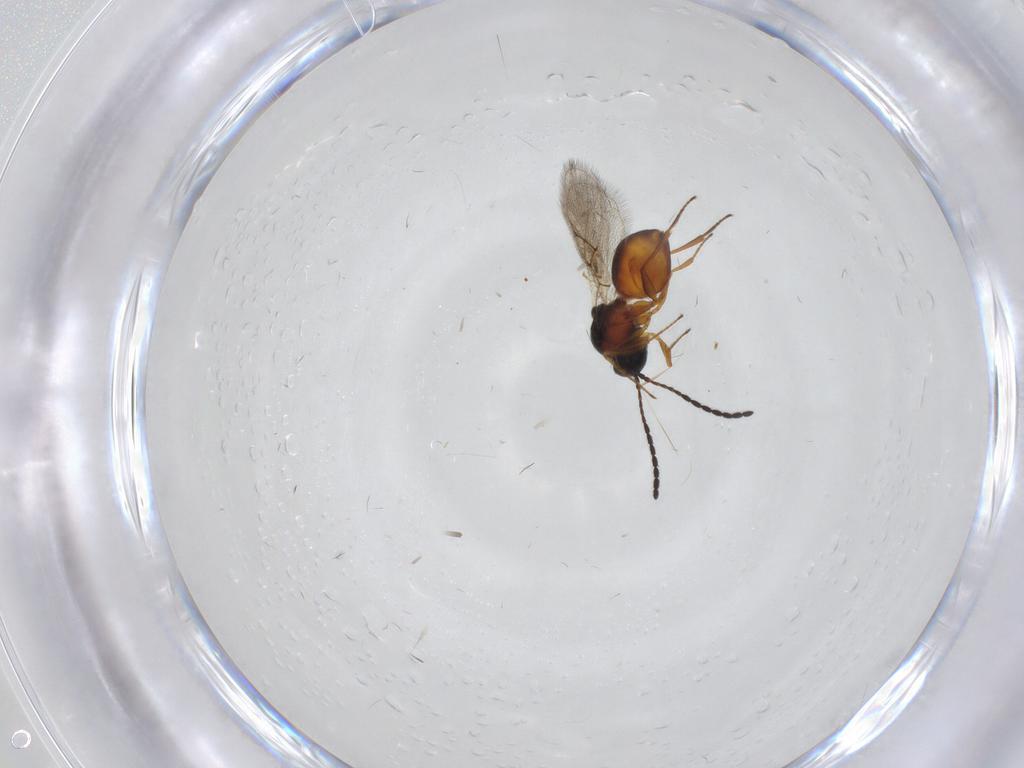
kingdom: Animalia
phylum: Arthropoda
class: Insecta
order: Hymenoptera
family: Figitidae
